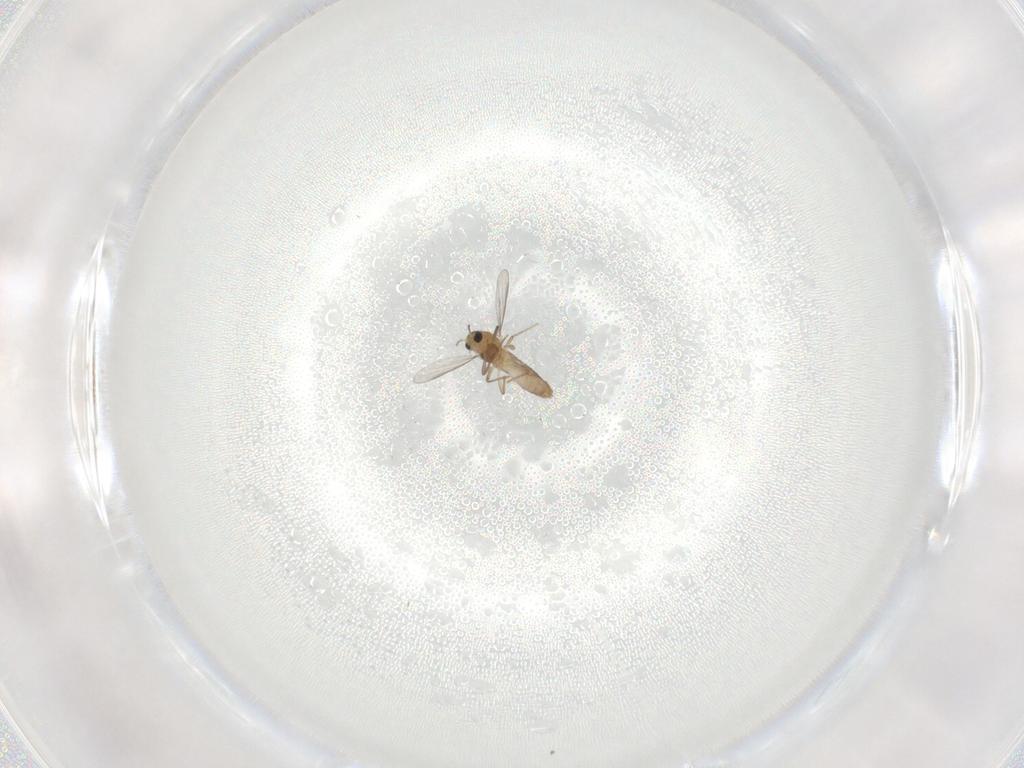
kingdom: Animalia
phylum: Arthropoda
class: Insecta
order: Diptera
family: Chironomidae
